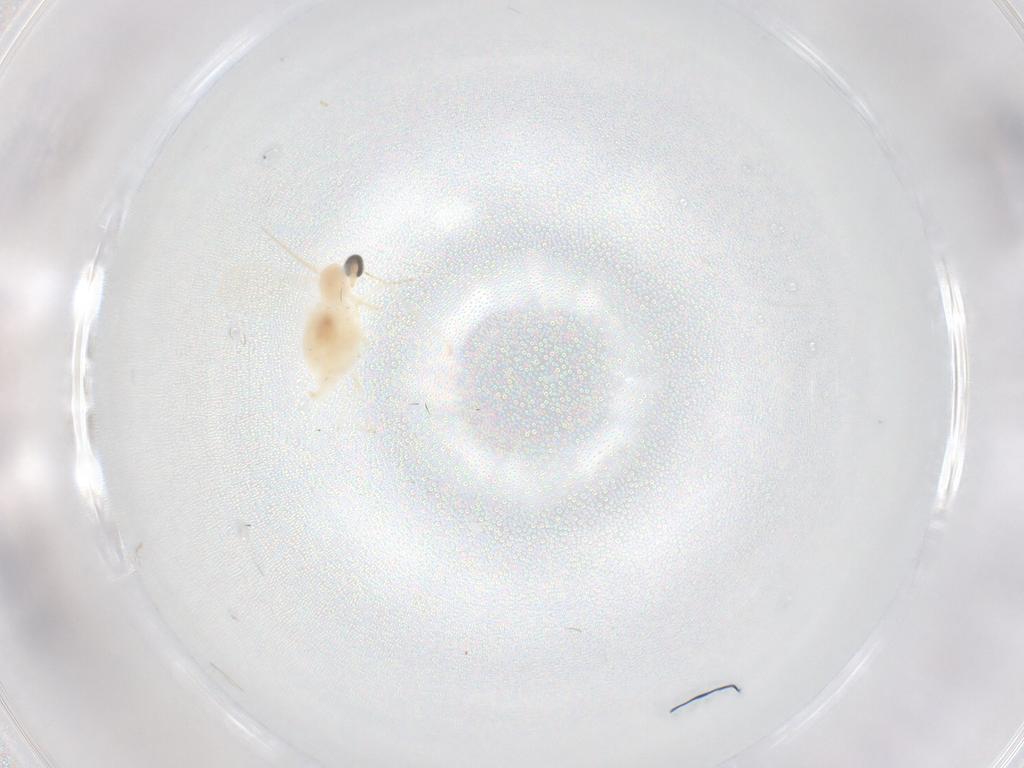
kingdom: Animalia
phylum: Arthropoda
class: Insecta
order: Diptera
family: Cecidomyiidae
